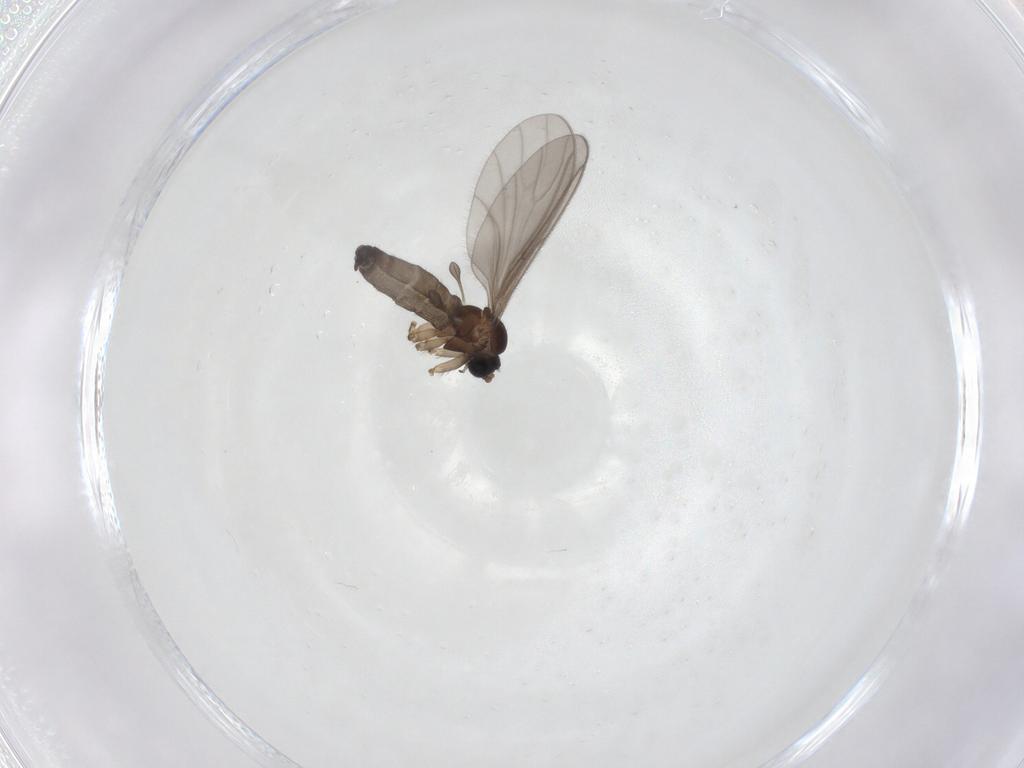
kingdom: Animalia
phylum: Arthropoda
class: Insecta
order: Diptera
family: Sciaridae
